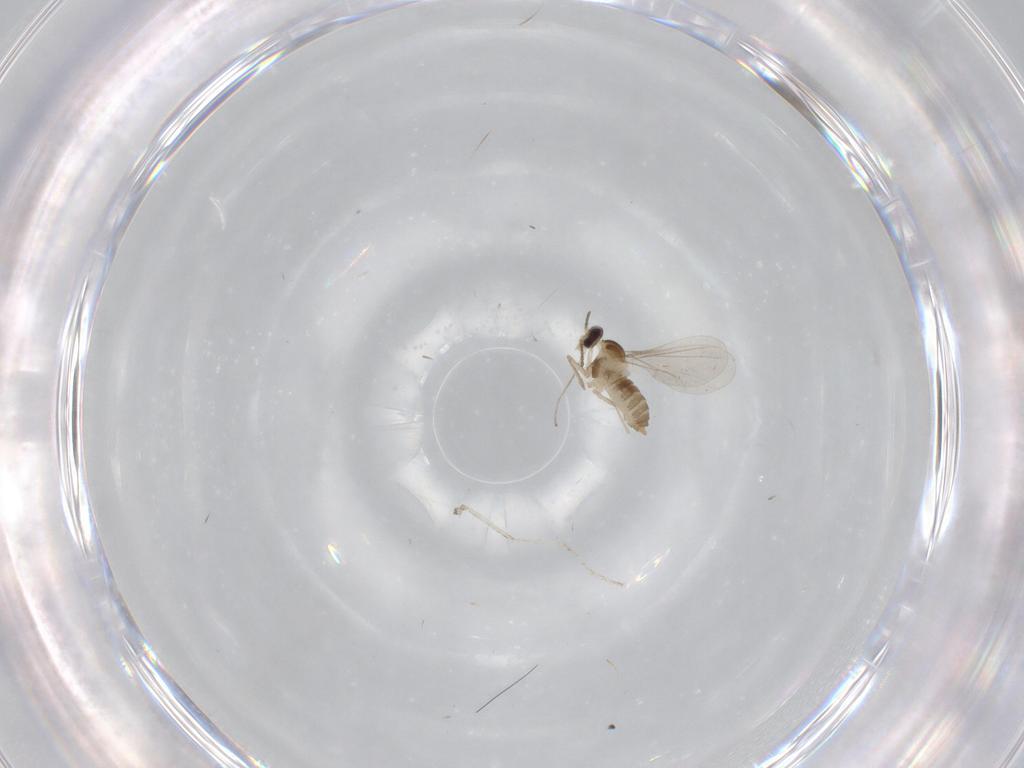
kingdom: Animalia
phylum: Arthropoda
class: Insecta
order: Diptera
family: Cecidomyiidae
